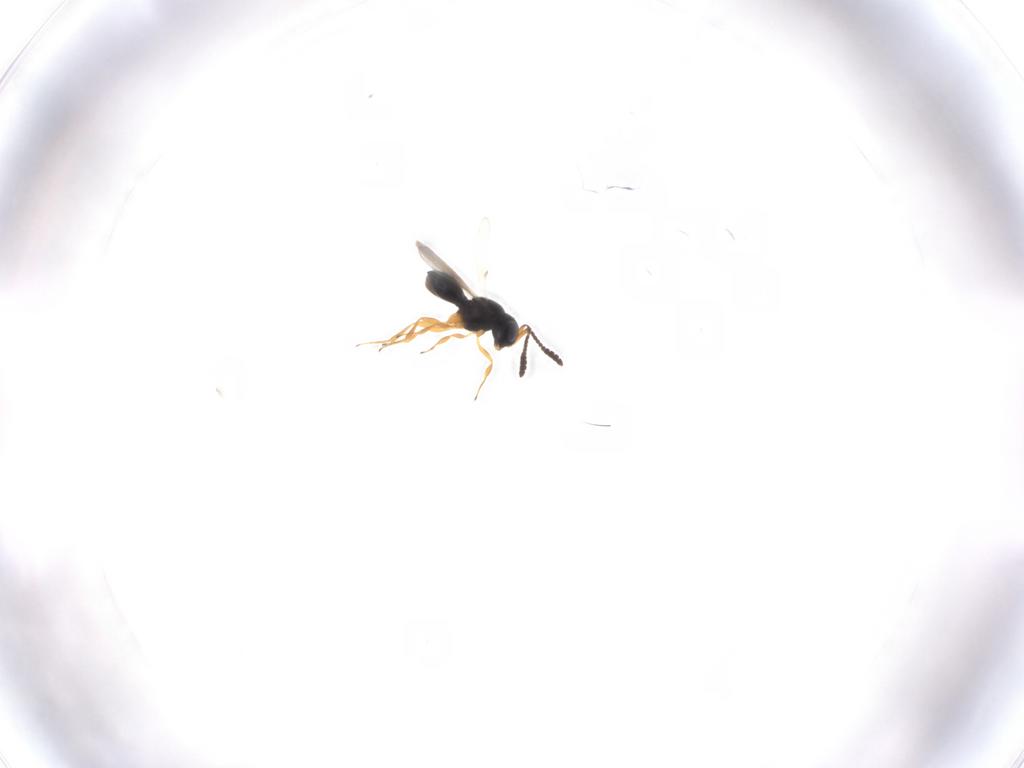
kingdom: Animalia
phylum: Arthropoda
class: Insecta
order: Hymenoptera
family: Scelionidae
